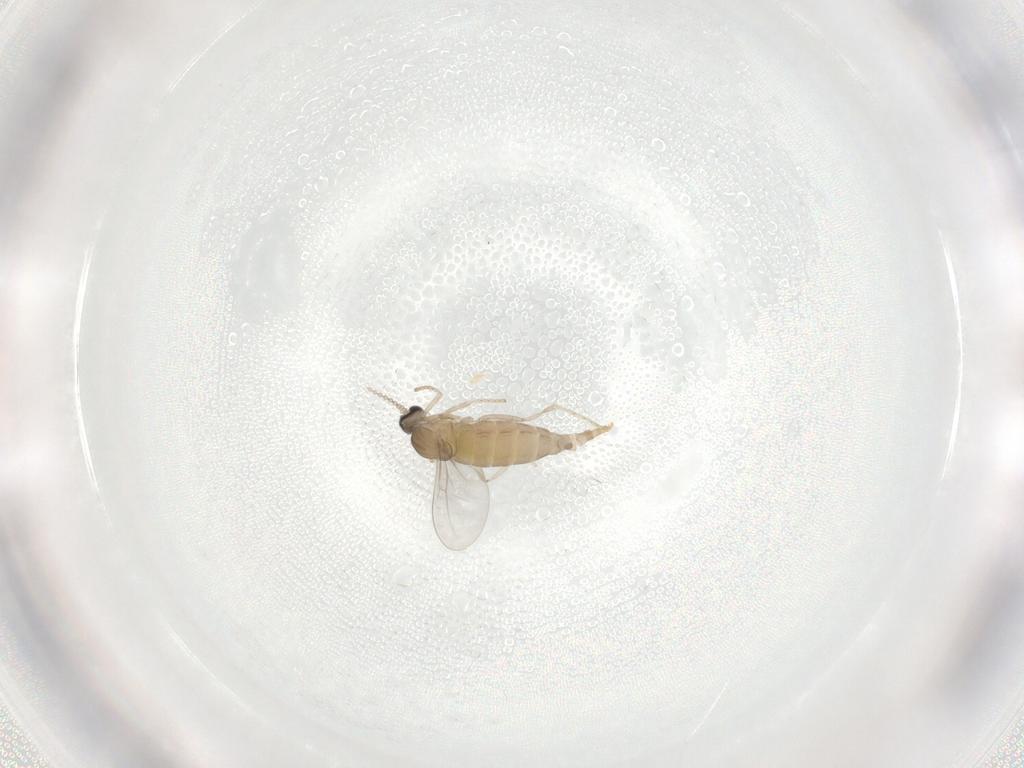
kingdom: Animalia
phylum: Arthropoda
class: Insecta
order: Diptera
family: Cecidomyiidae
